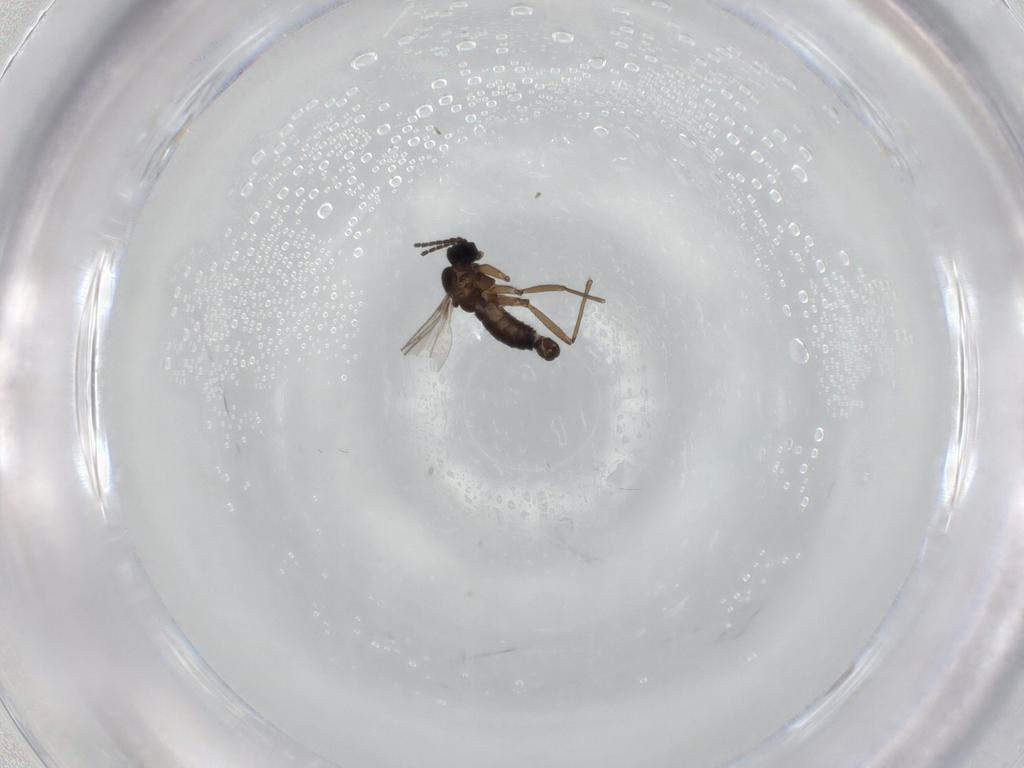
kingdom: Animalia
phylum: Arthropoda
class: Insecta
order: Diptera
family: Sciaridae
